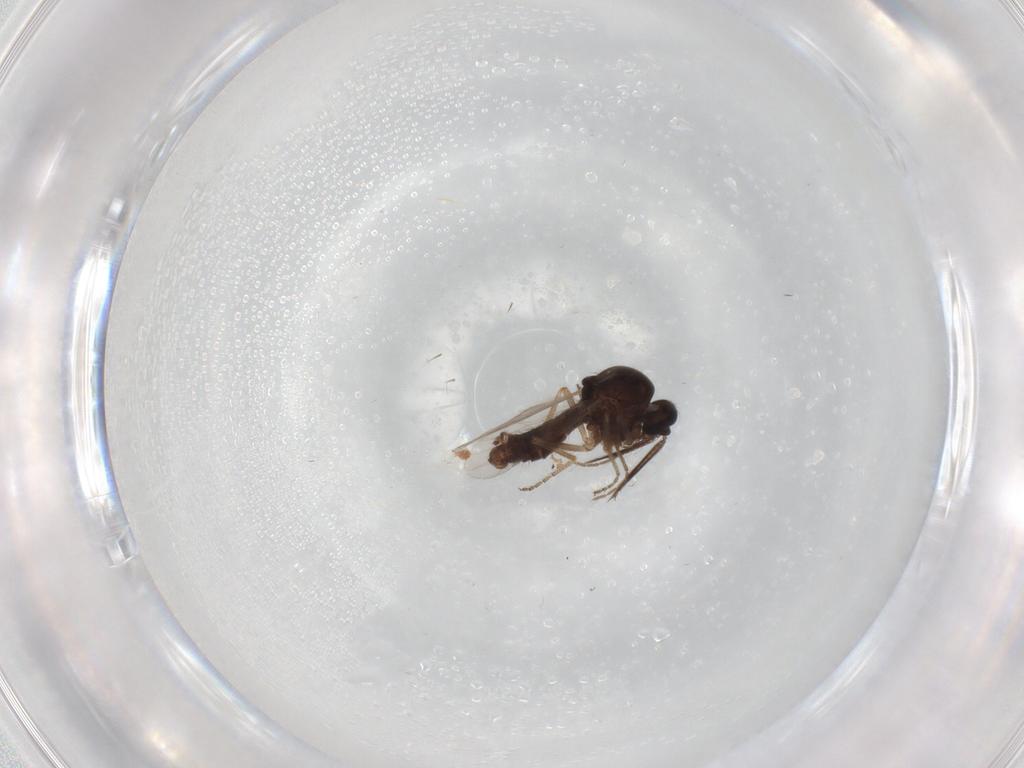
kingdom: Animalia
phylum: Arthropoda
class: Insecta
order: Diptera
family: Ceratopogonidae
